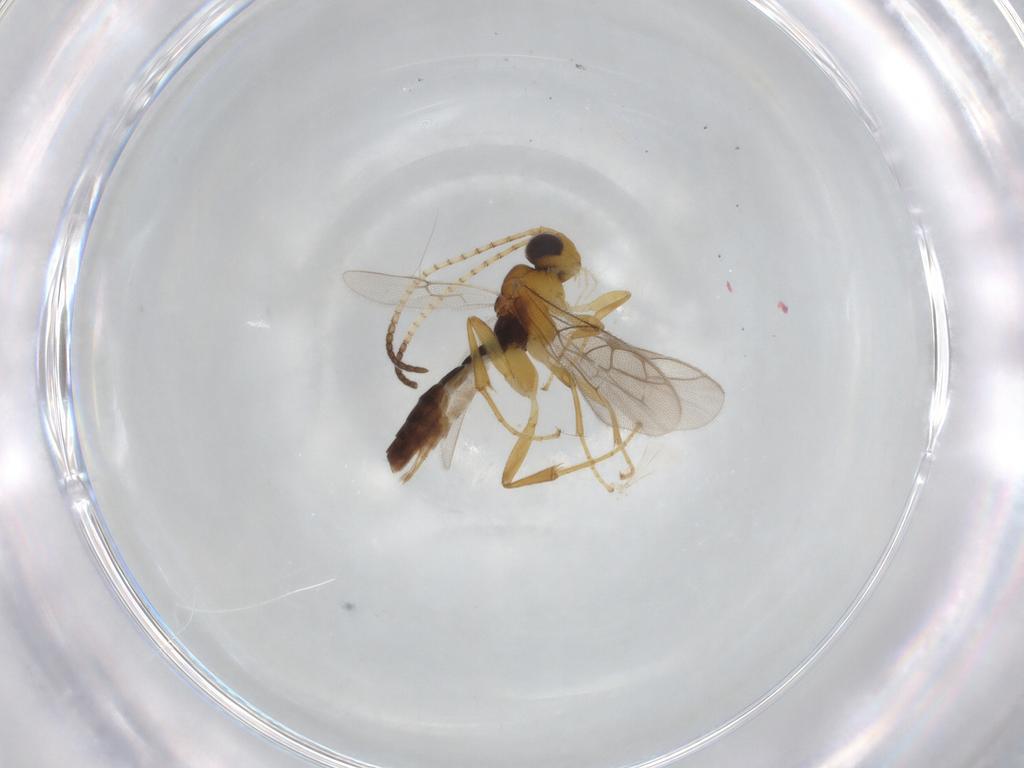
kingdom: Animalia
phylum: Arthropoda
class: Insecta
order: Hymenoptera
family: Ichneumonidae
